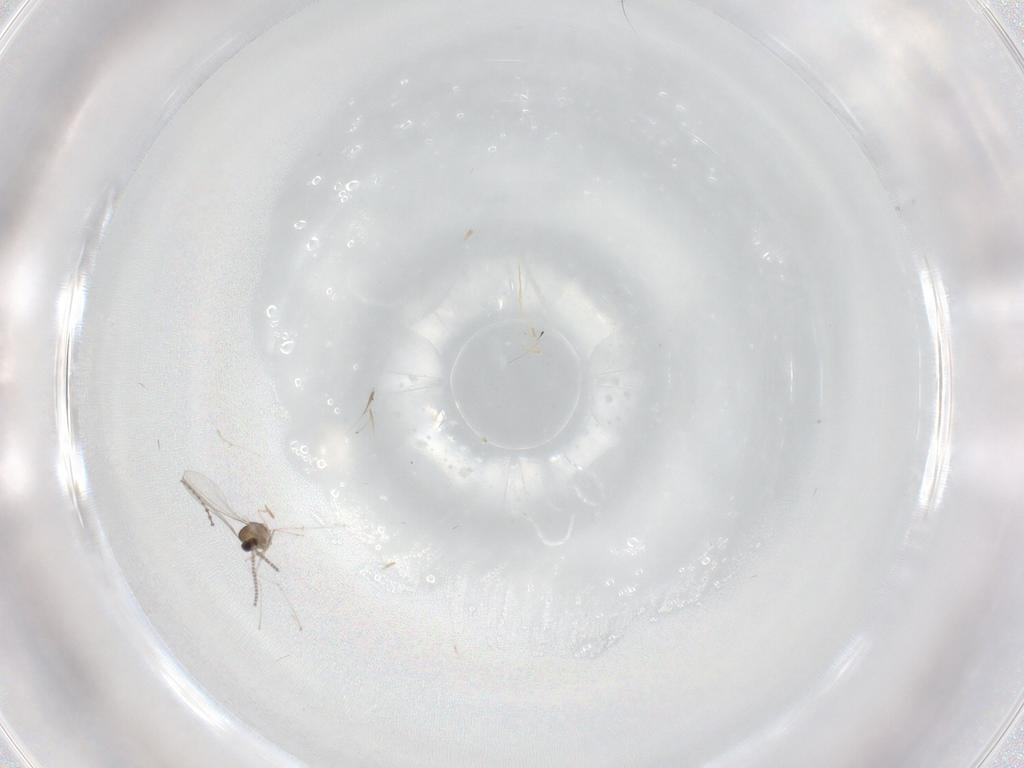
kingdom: Animalia
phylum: Arthropoda
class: Insecta
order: Diptera
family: Cecidomyiidae
